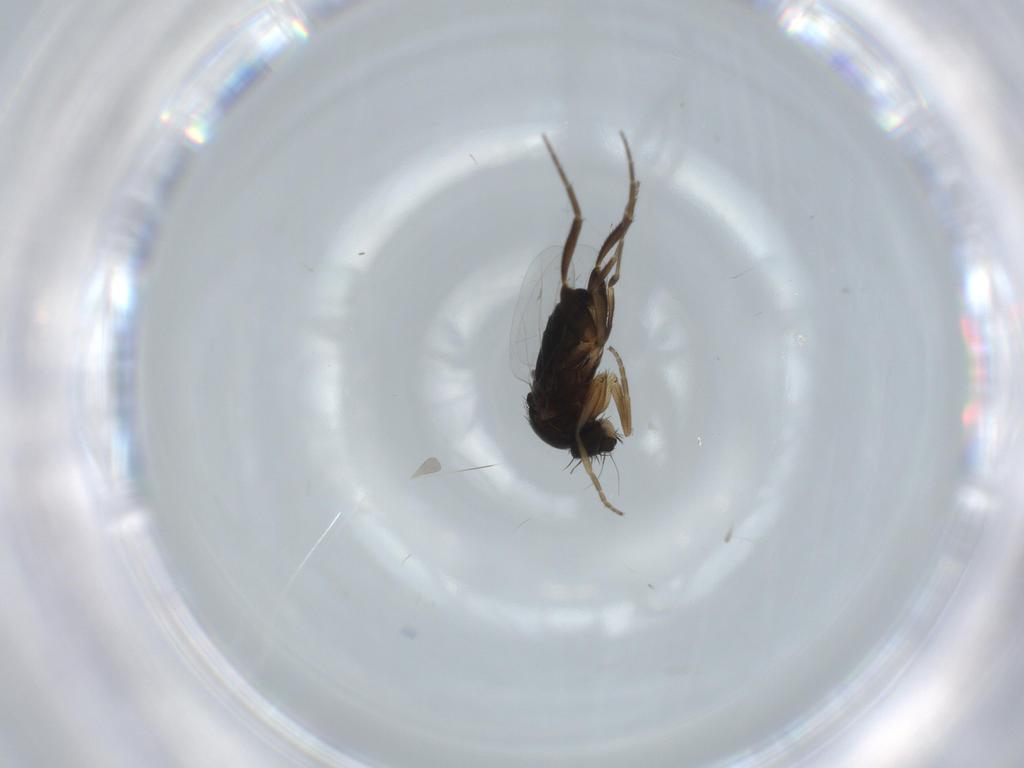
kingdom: Animalia
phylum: Arthropoda
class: Insecta
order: Diptera
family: Phoridae
